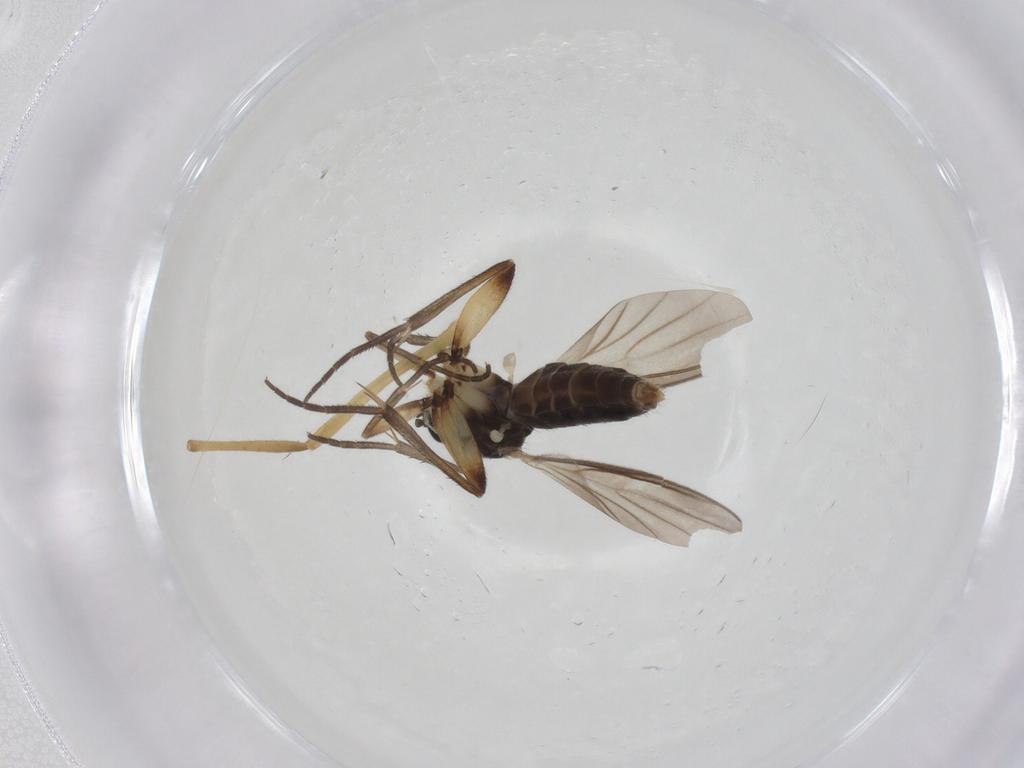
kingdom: Animalia
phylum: Arthropoda
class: Insecta
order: Diptera
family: Mycetophilidae
